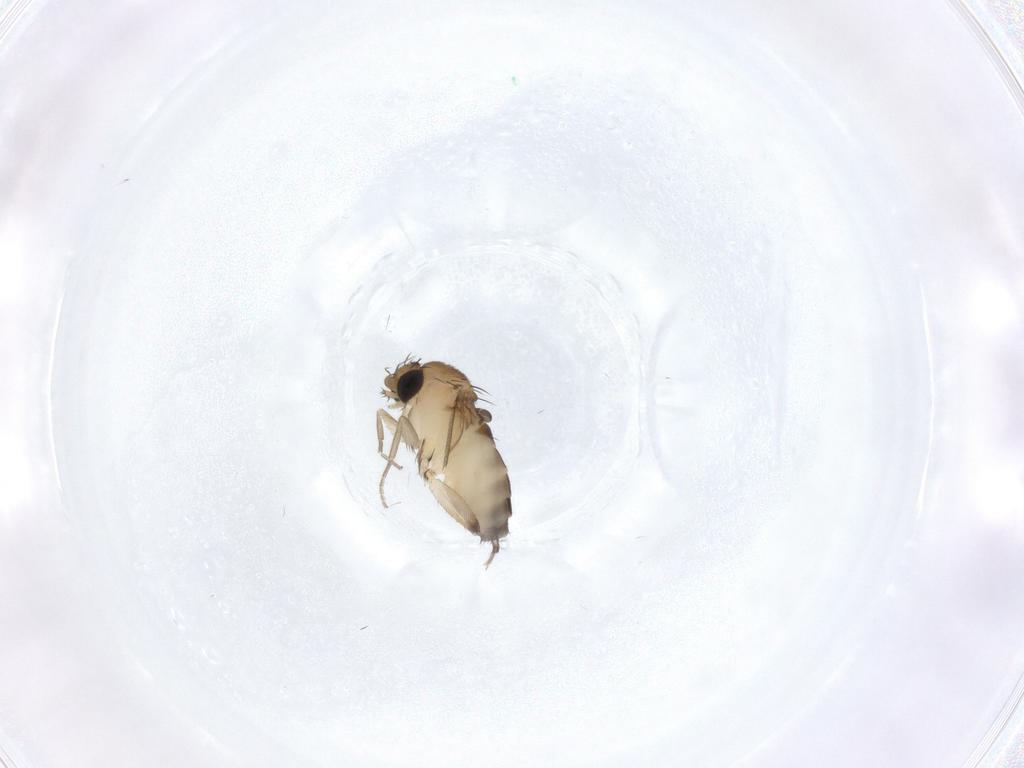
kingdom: Animalia
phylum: Arthropoda
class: Insecta
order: Diptera
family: Phoridae
